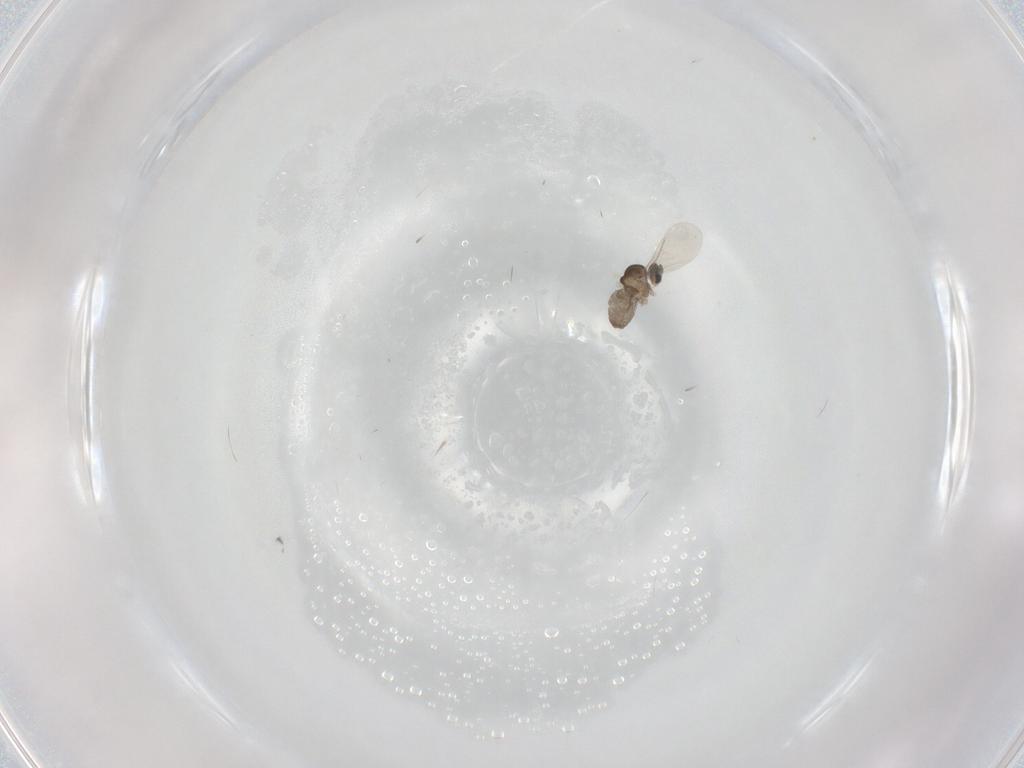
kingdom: Animalia
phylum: Arthropoda
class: Insecta
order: Diptera
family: Cecidomyiidae
